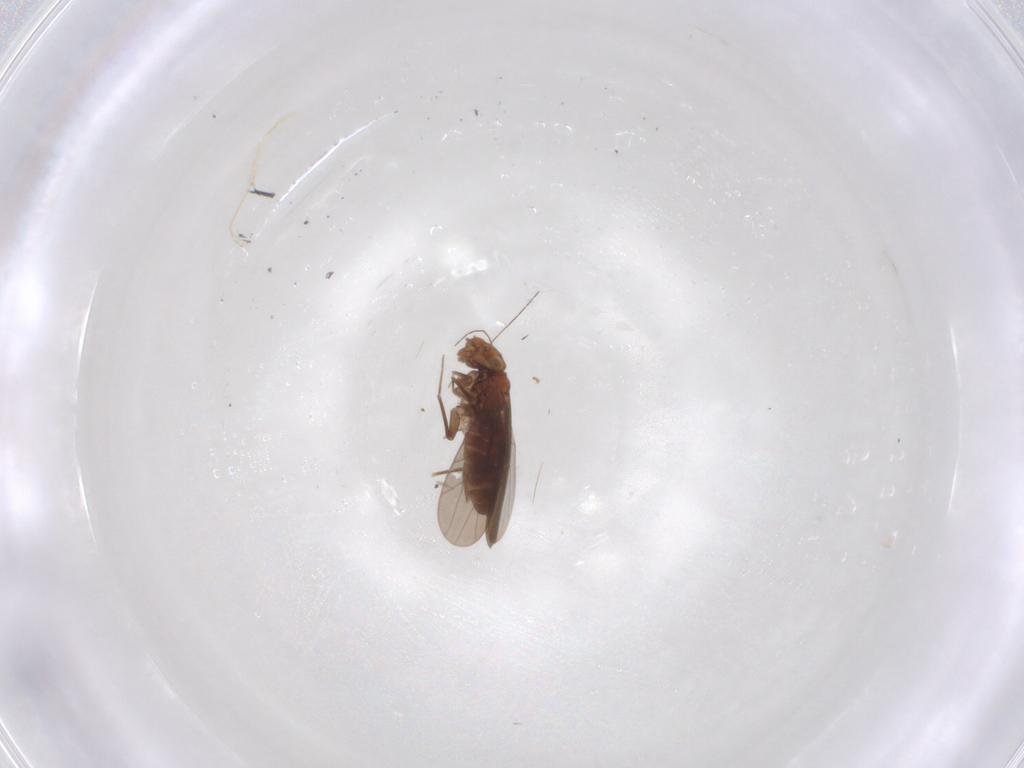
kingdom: Animalia
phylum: Arthropoda
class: Insecta
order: Psocodea
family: Lepidopsocidae
